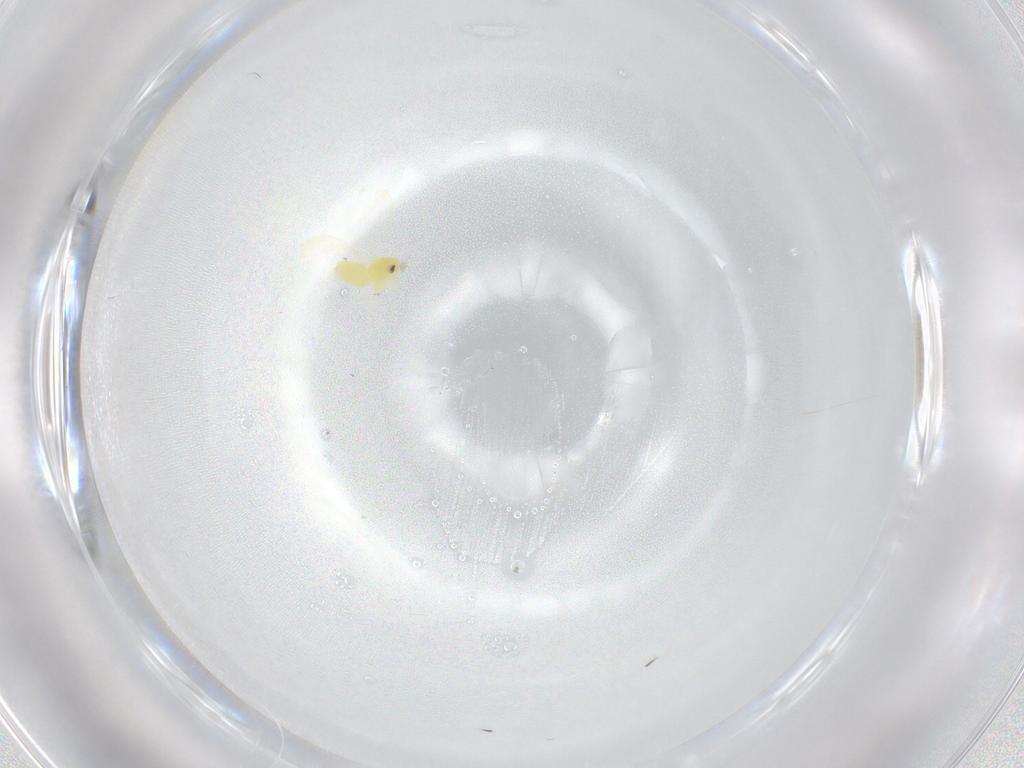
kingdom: Animalia
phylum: Arthropoda
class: Insecta
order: Hemiptera
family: Aleyrodidae
